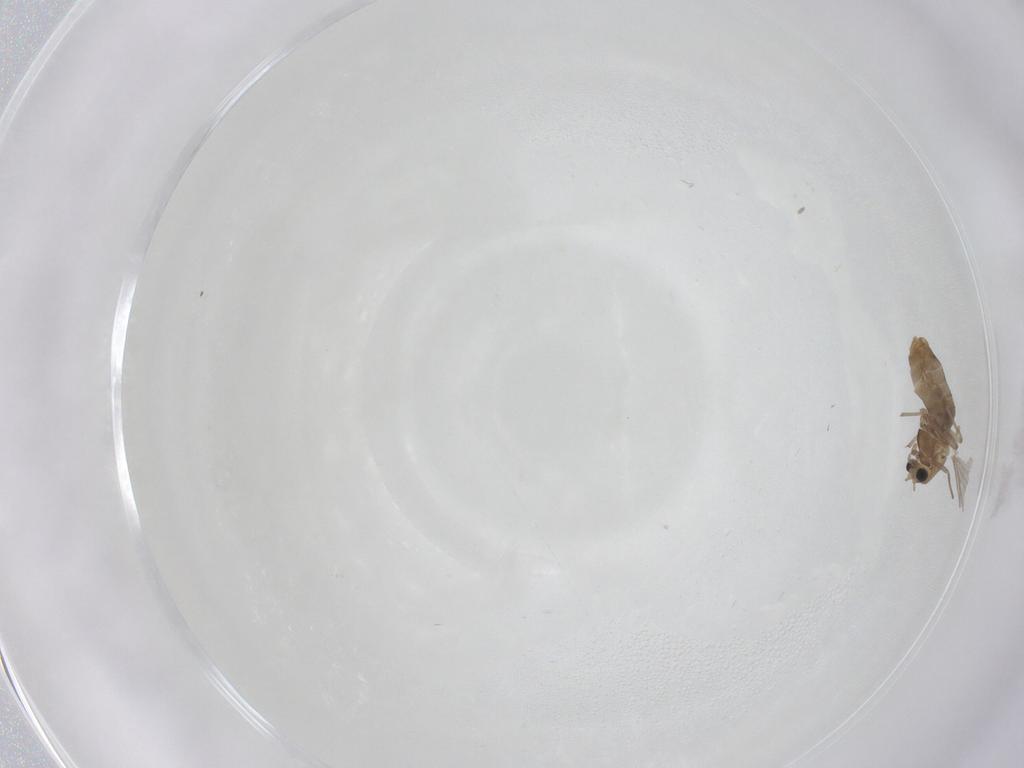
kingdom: Animalia
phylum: Arthropoda
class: Insecta
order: Diptera
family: Chironomidae
